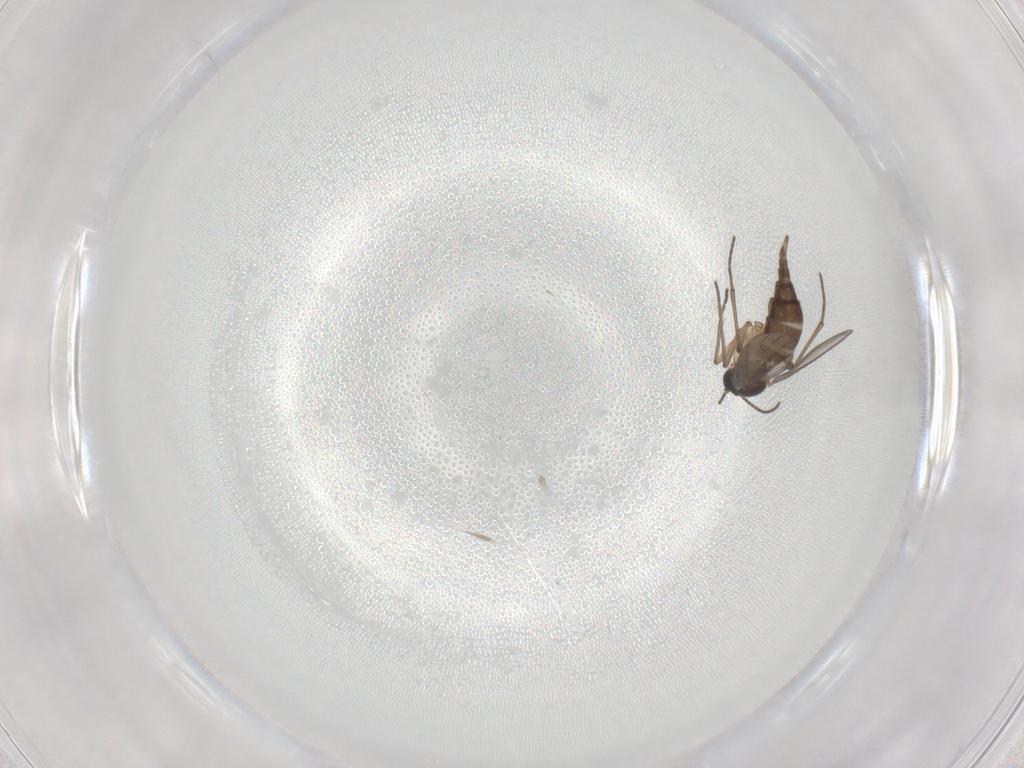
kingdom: Animalia
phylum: Arthropoda
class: Insecta
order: Diptera
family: Sciaridae
